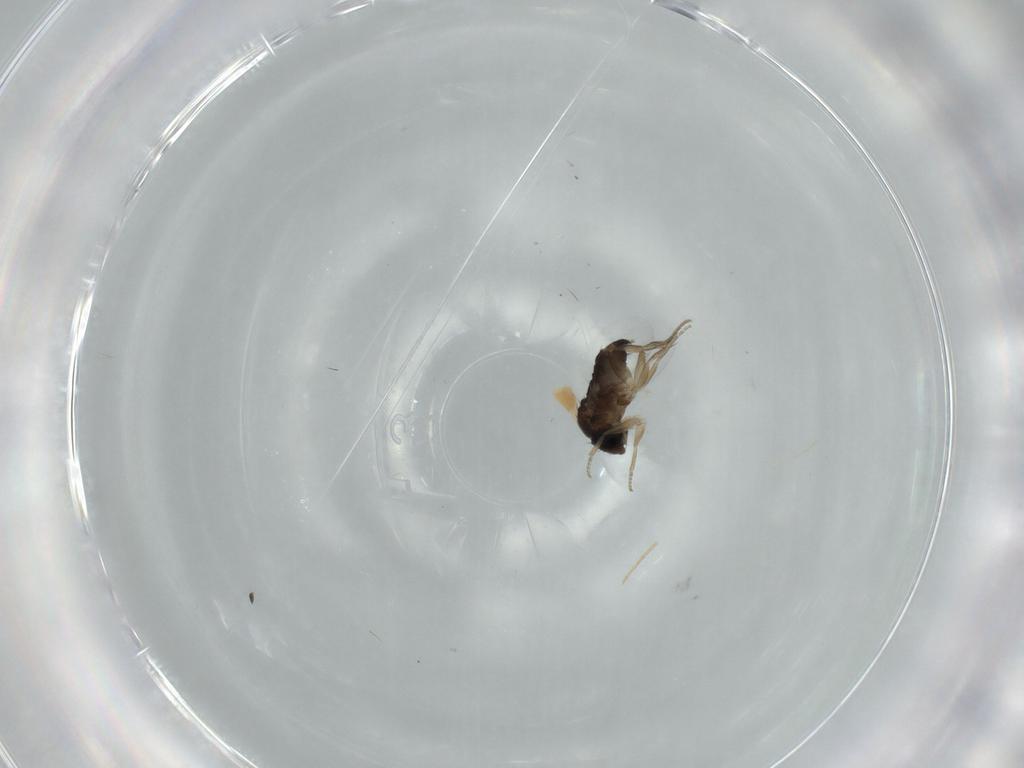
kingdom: Animalia
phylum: Arthropoda
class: Insecta
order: Diptera
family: Phoridae
